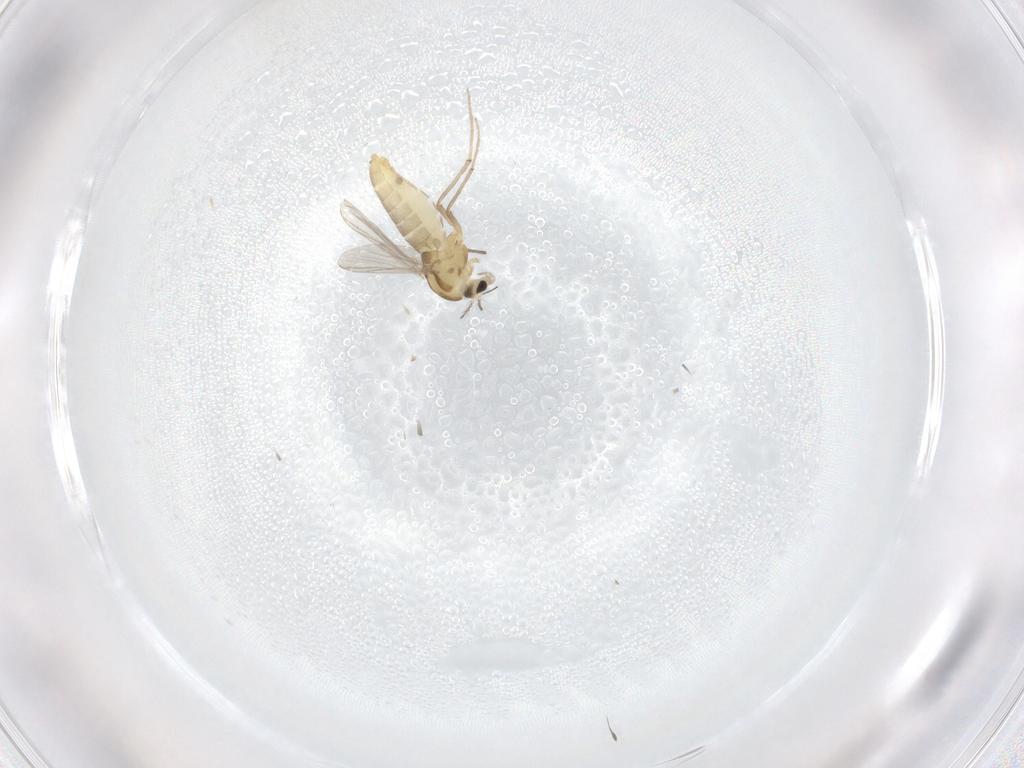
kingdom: Animalia
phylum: Arthropoda
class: Insecta
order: Diptera
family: Chironomidae
